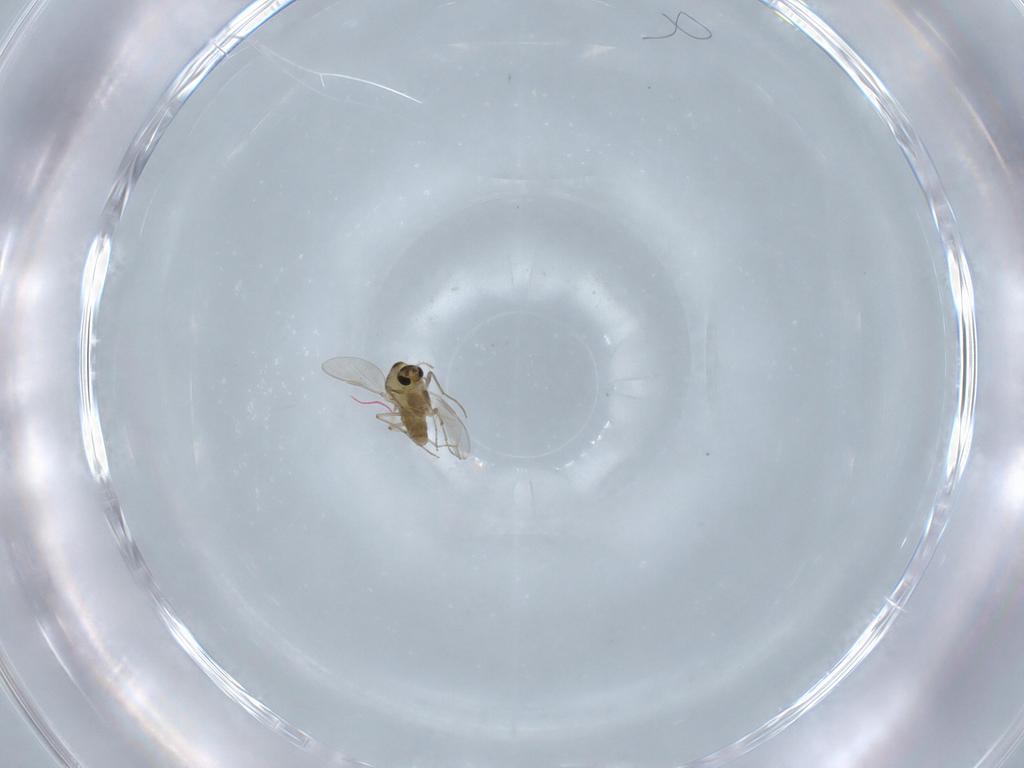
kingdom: Animalia
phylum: Arthropoda
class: Insecta
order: Diptera
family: Chironomidae
